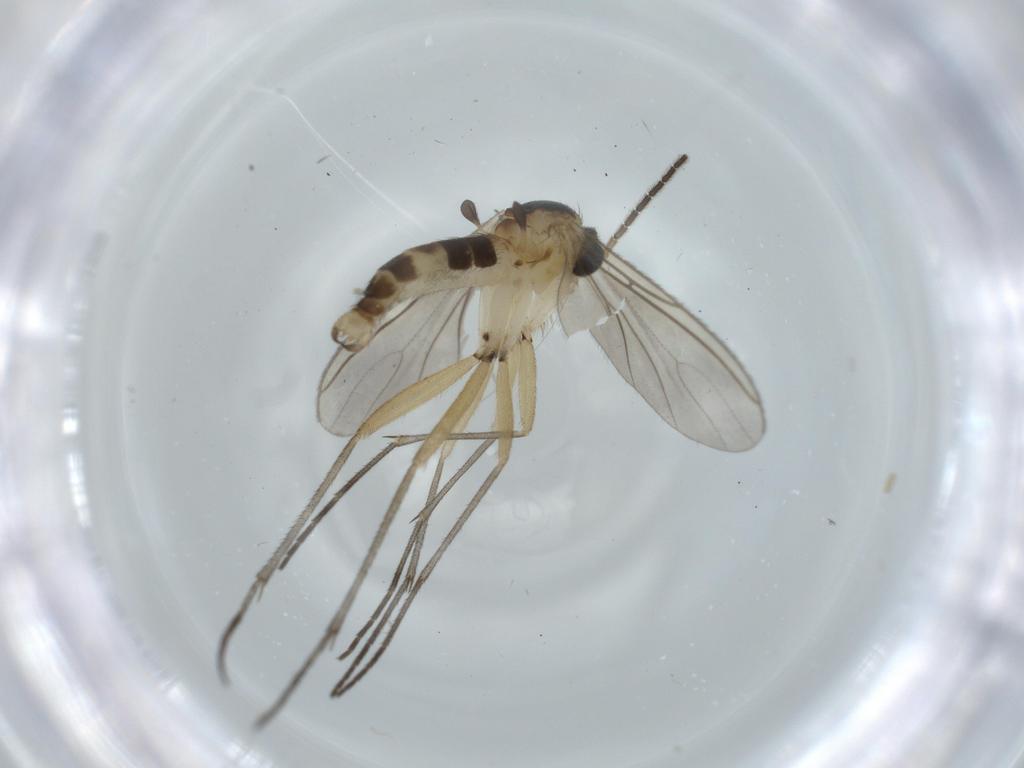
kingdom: Animalia
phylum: Arthropoda
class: Insecta
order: Diptera
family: Sciaridae
